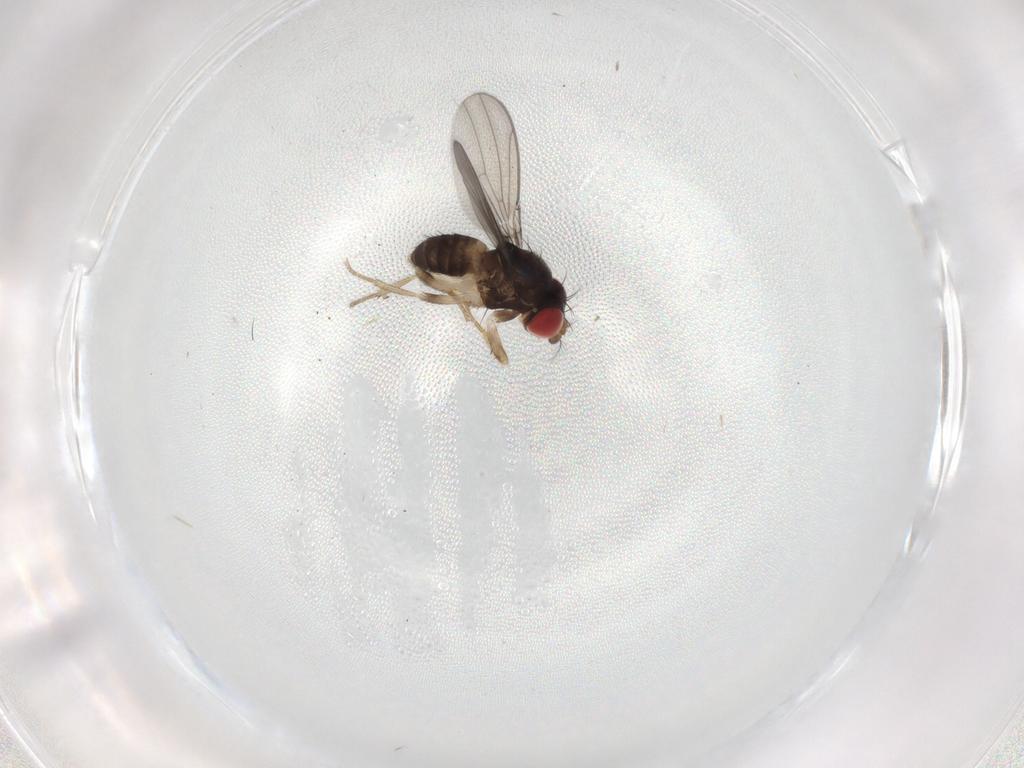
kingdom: Animalia
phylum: Arthropoda
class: Insecta
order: Diptera
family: Drosophilidae
